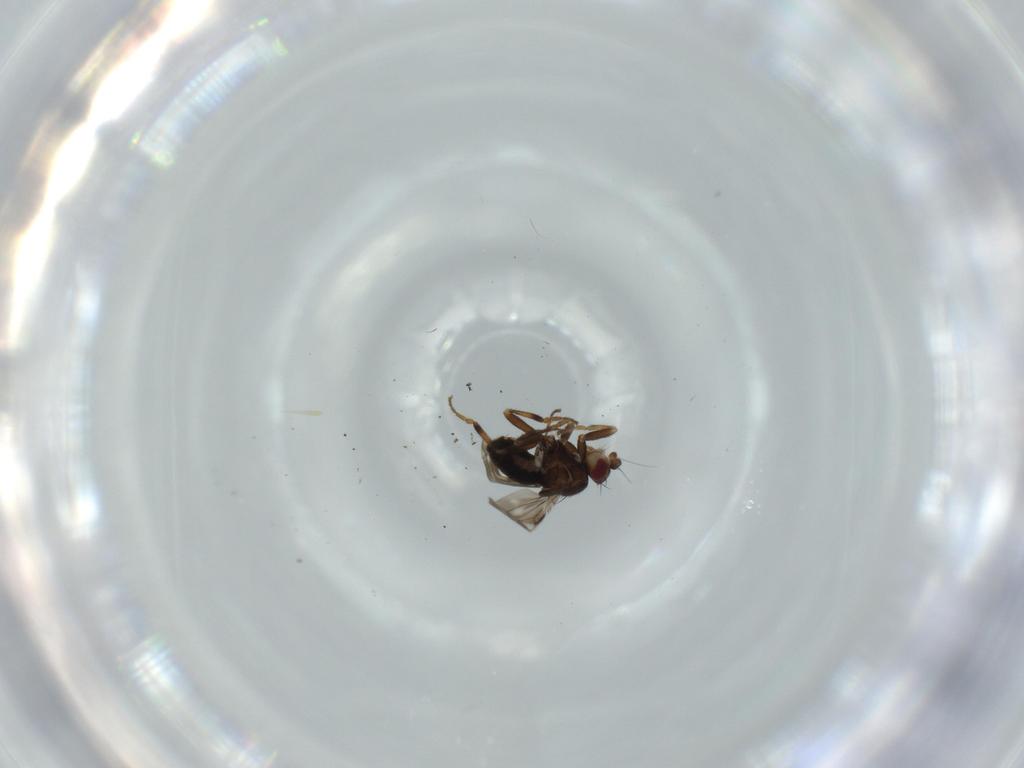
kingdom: Animalia
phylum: Arthropoda
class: Insecta
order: Diptera
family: Sphaeroceridae
